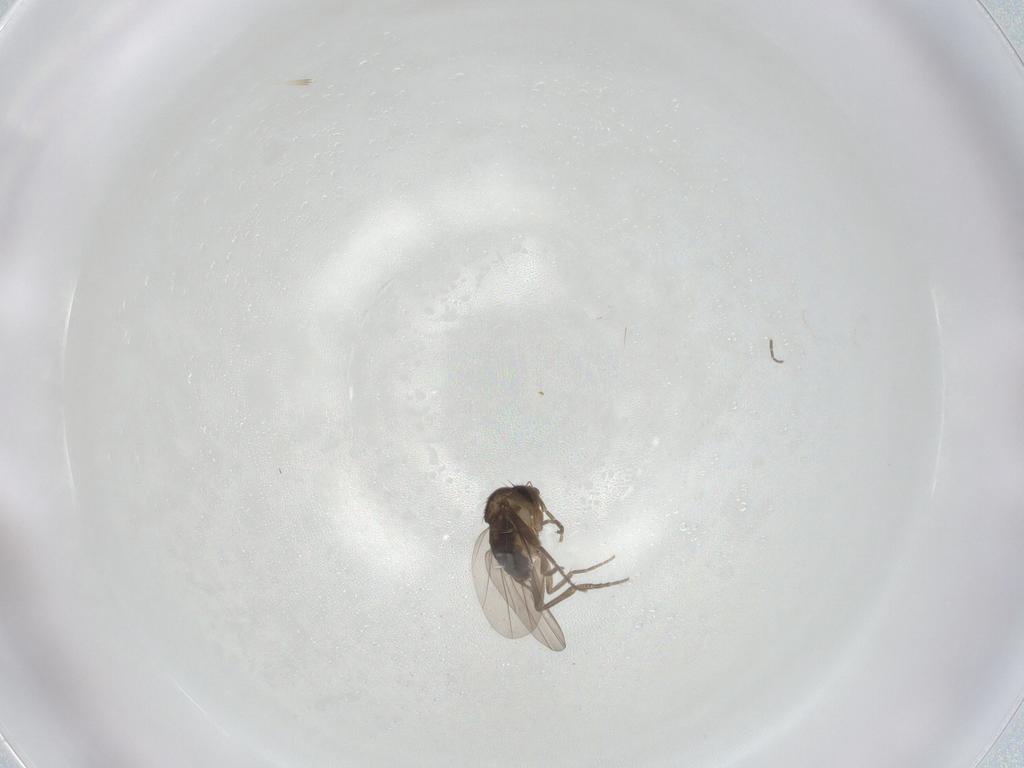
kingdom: Animalia
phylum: Arthropoda
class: Insecta
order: Diptera
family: Phoridae
